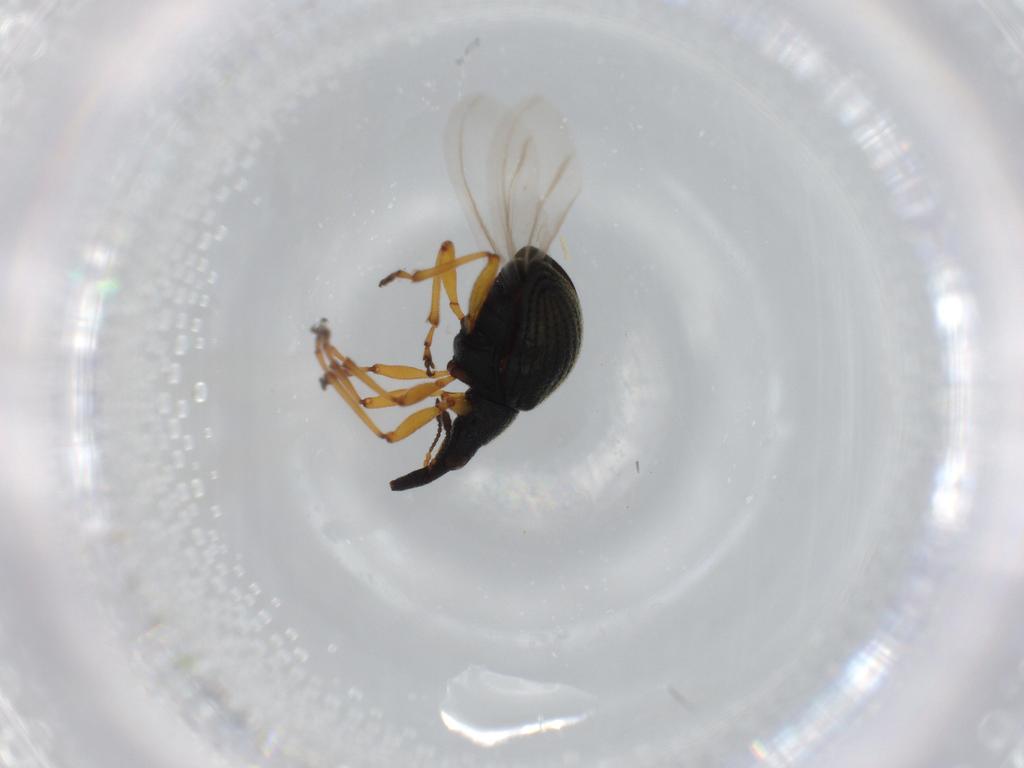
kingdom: Animalia
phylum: Arthropoda
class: Insecta
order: Coleoptera
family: Brentidae
